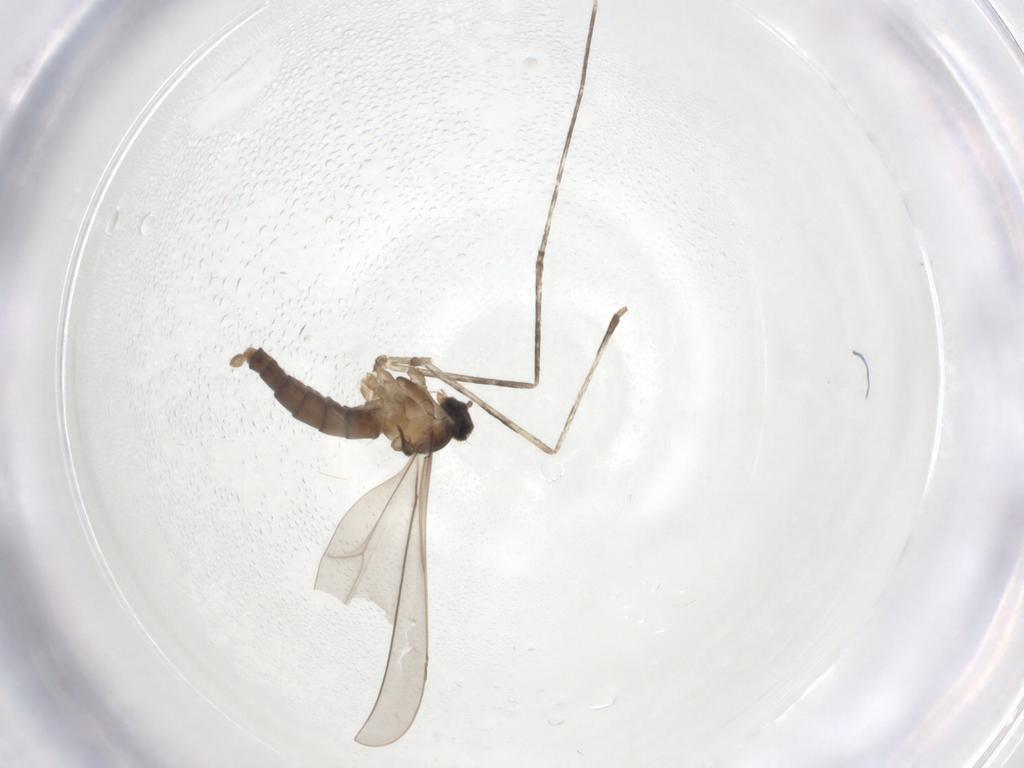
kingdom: Animalia
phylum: Arthropoda
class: Insecta
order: Diptera
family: Cecidomyiidae
